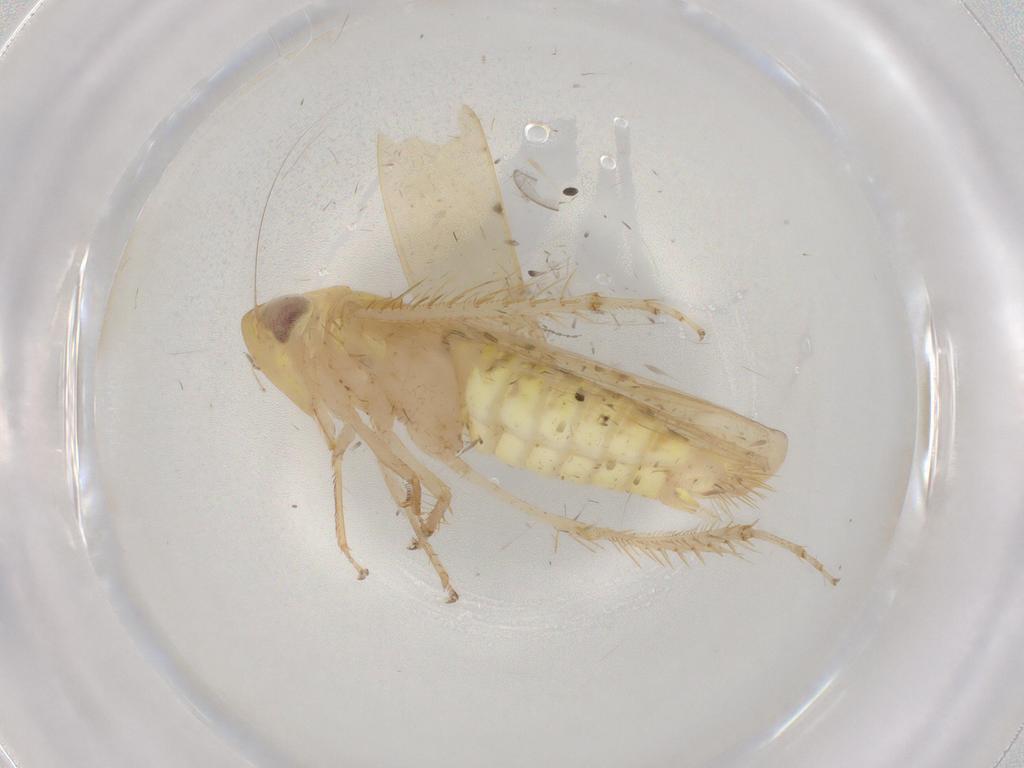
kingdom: Animalia
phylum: Arthropoda
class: Insecta
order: Hemiptera
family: Cicadellidae
